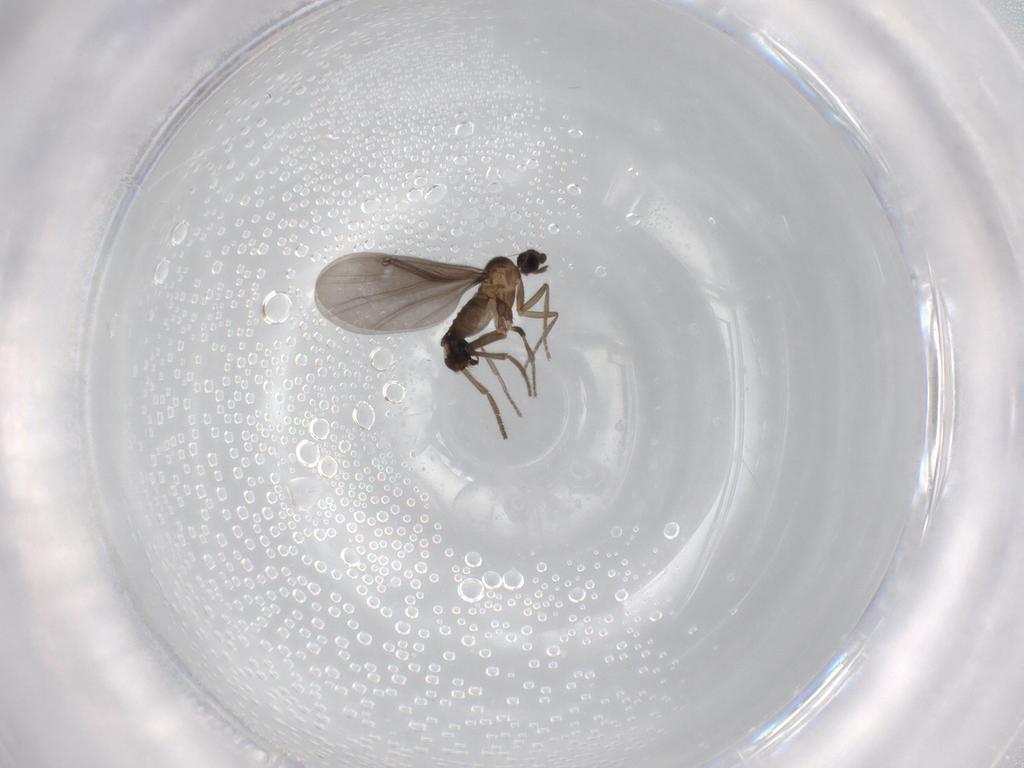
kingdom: Animalia
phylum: Arthropoda
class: Insecta
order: Diptera
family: Phoridae
